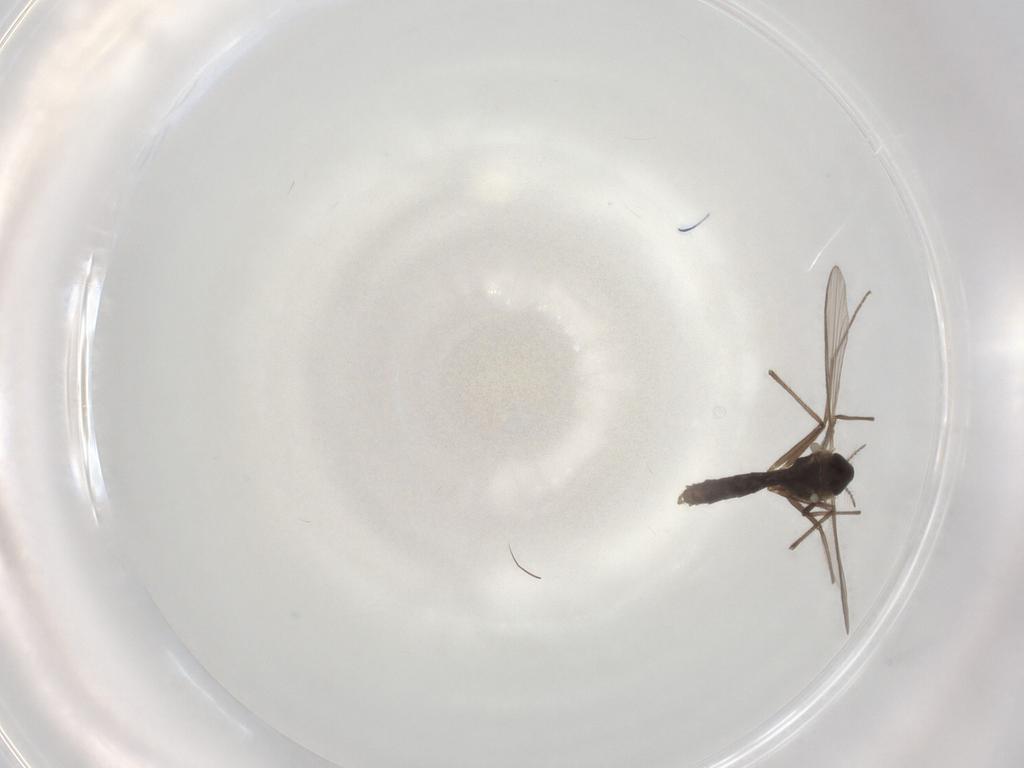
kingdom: Animalia
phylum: Arthropoda
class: Insecta
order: Diptera
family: Chironomidae
